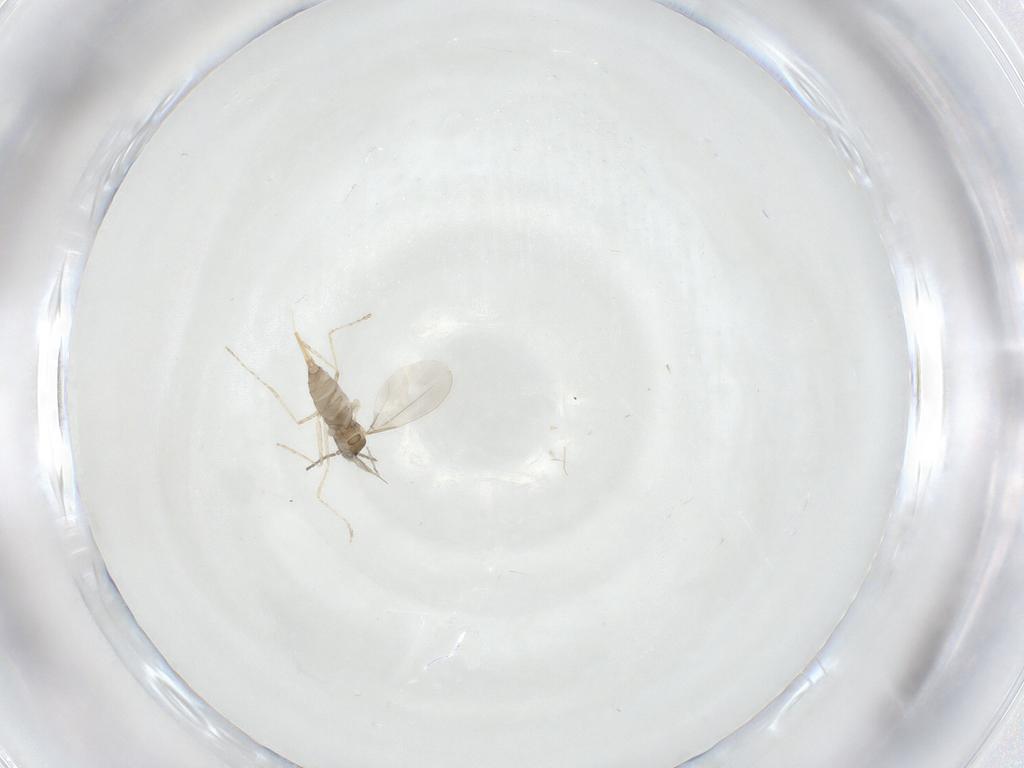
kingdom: Animalia
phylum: Arthropoda
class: Insecta
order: Diptera
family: Cecidomyiidae
